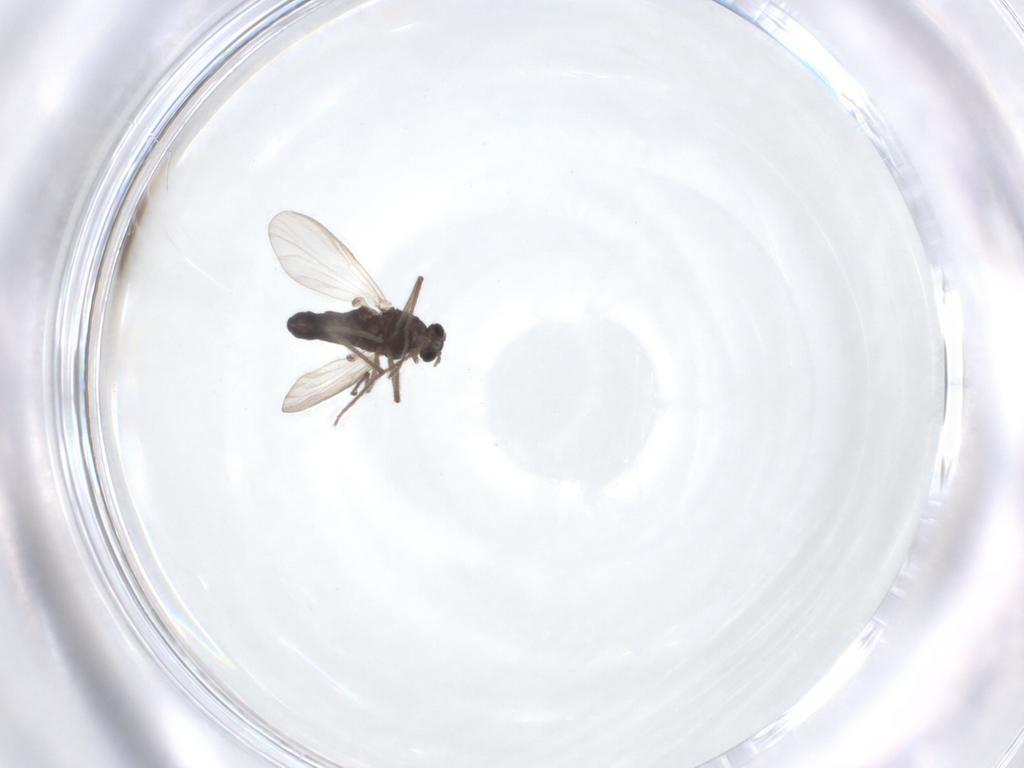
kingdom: Animalia
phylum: Arthropoda
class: Insecta
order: Diptera
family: Chironomidae
